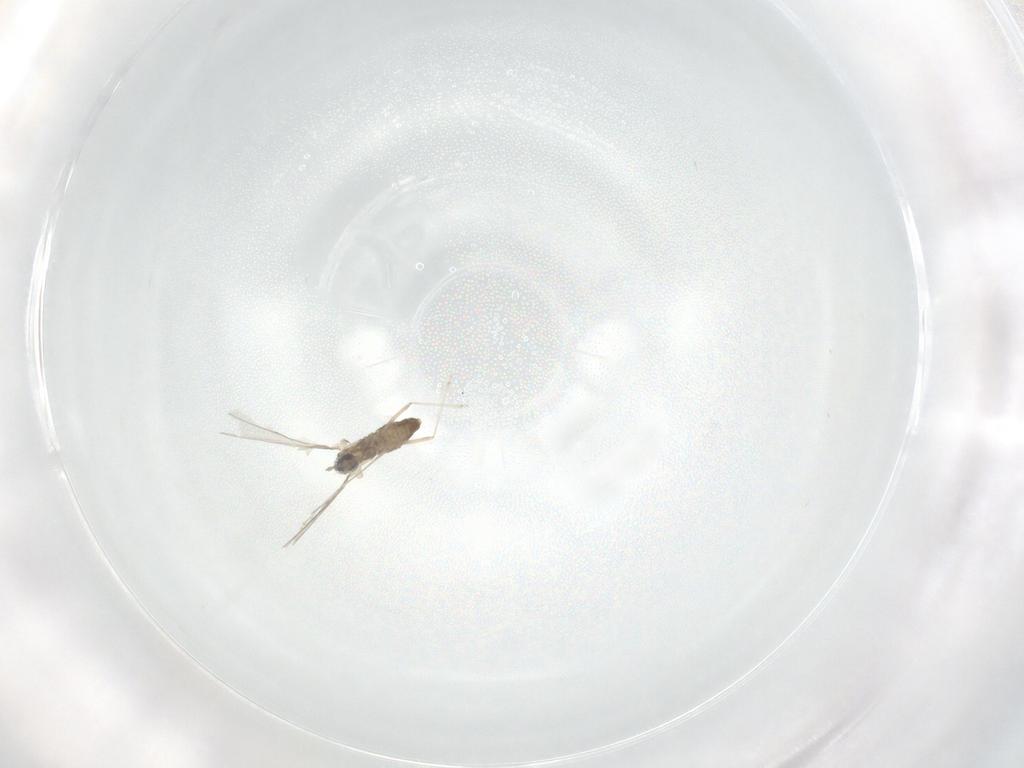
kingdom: Animalia
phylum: Arthropoda
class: Insecta
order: Diptera
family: Cecidomyiidae
